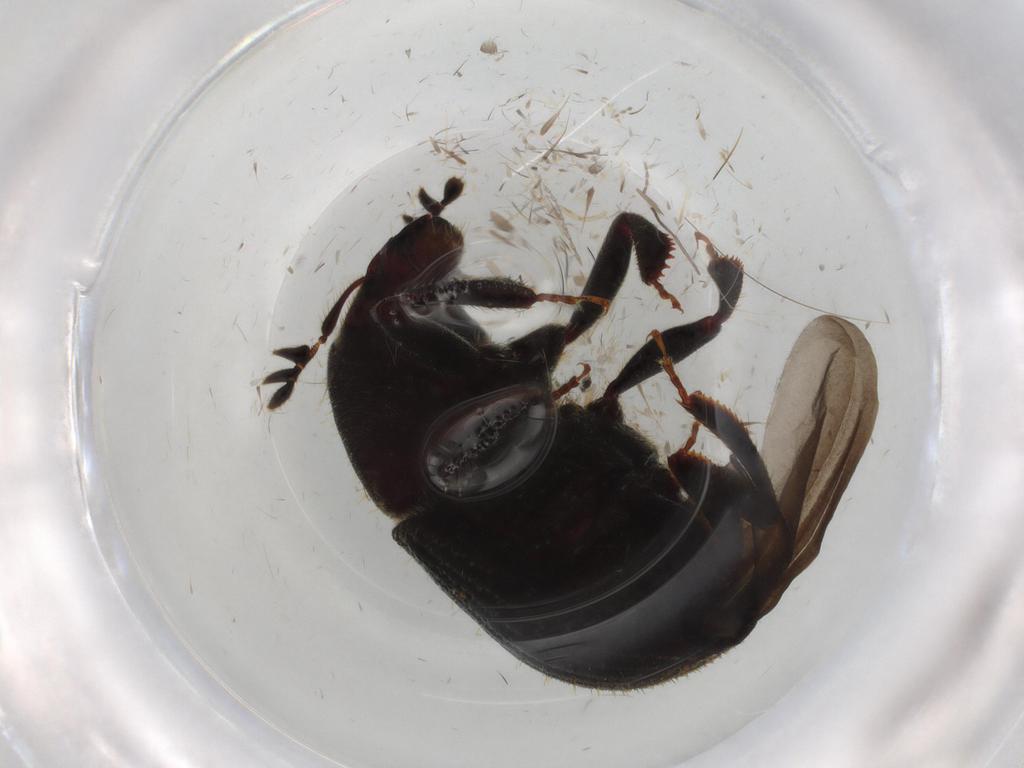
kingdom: Animalia
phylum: Arthropoda
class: Insecta
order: Coleoptera
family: Curculionidae
